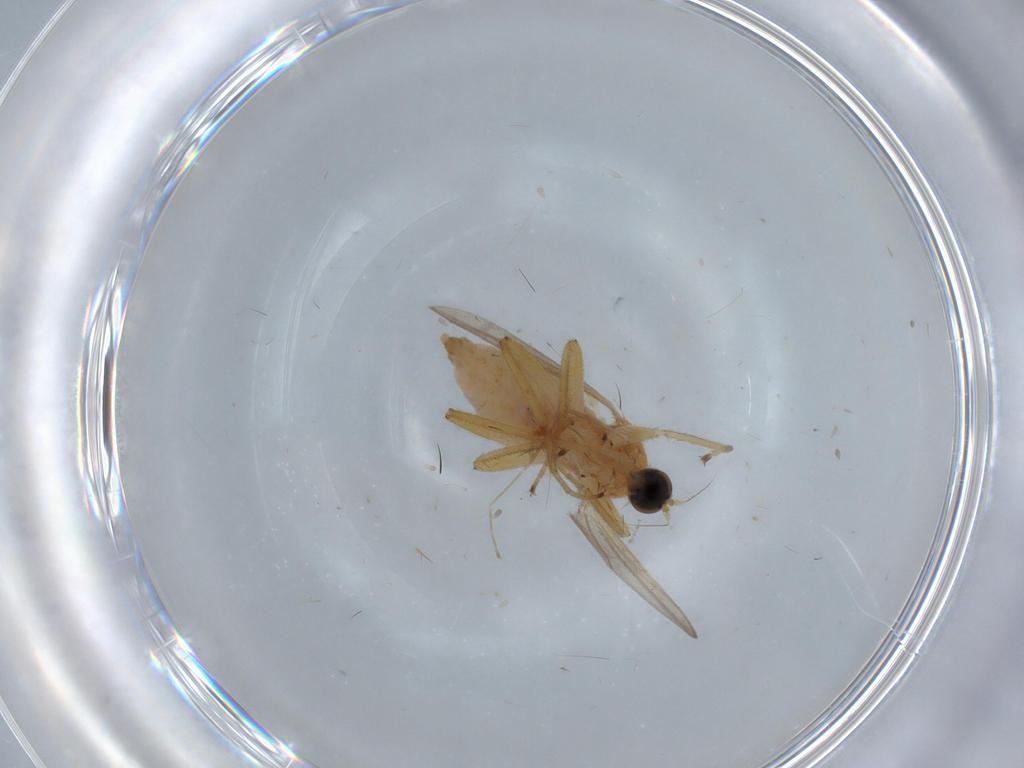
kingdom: Animalia
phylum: Arthropoda
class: Insecta
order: Diptera
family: Hybotidae
